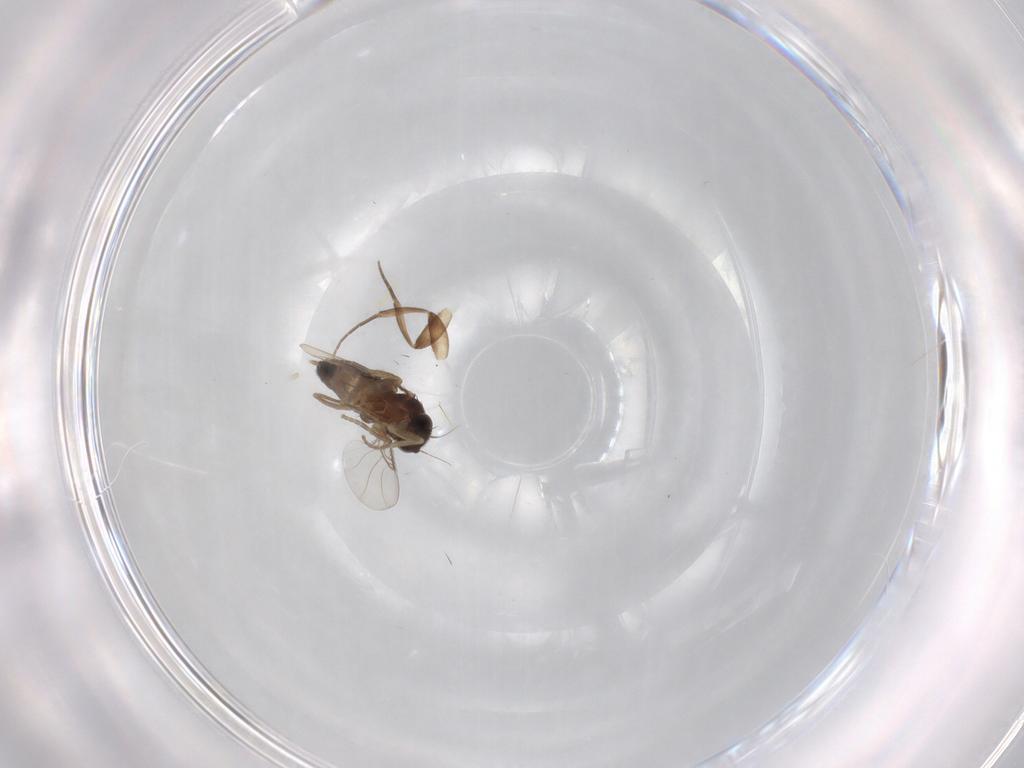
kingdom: Animalia
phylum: Arthropoda
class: Insecta
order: Diptera
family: Phoridae
